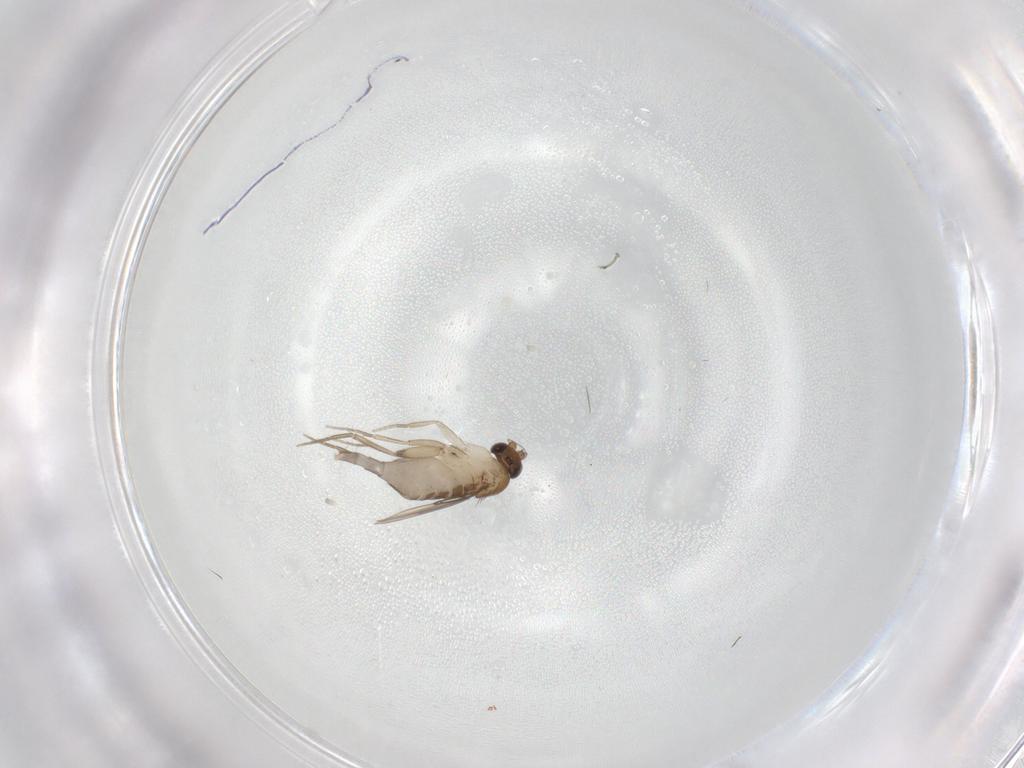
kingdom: Animalia
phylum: Arthropoda
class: Insecta
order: Diptera
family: Phoridae
